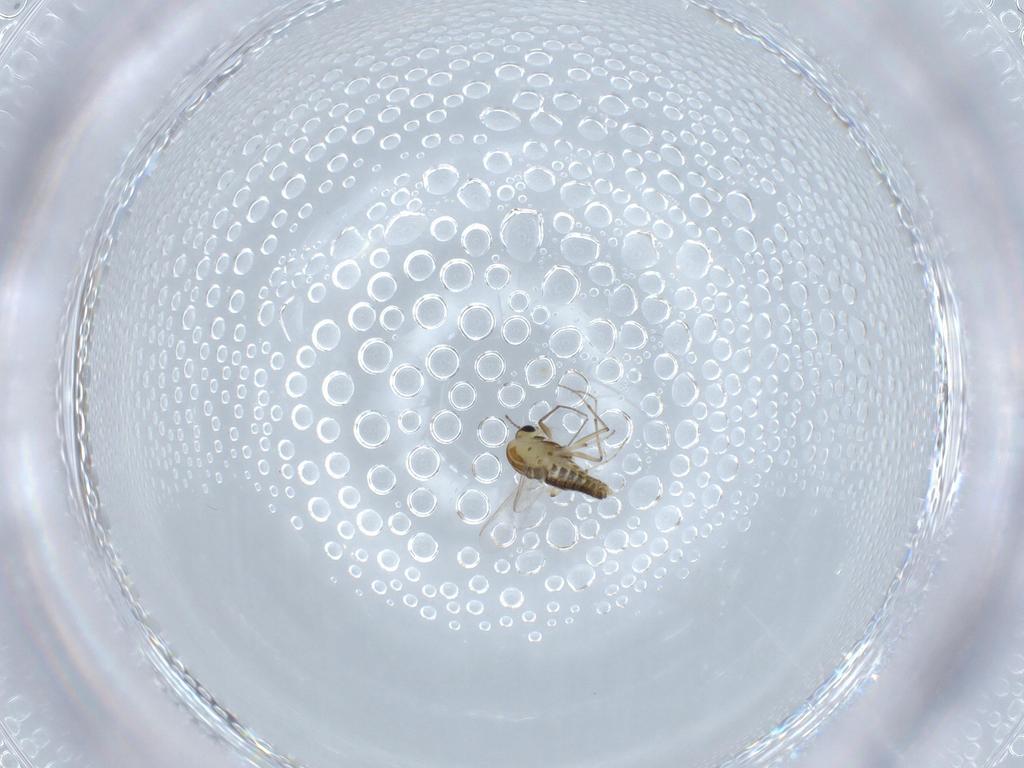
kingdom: Animalia
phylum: Arthropoda
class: Insecta
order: Diptera
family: Chironomidae
